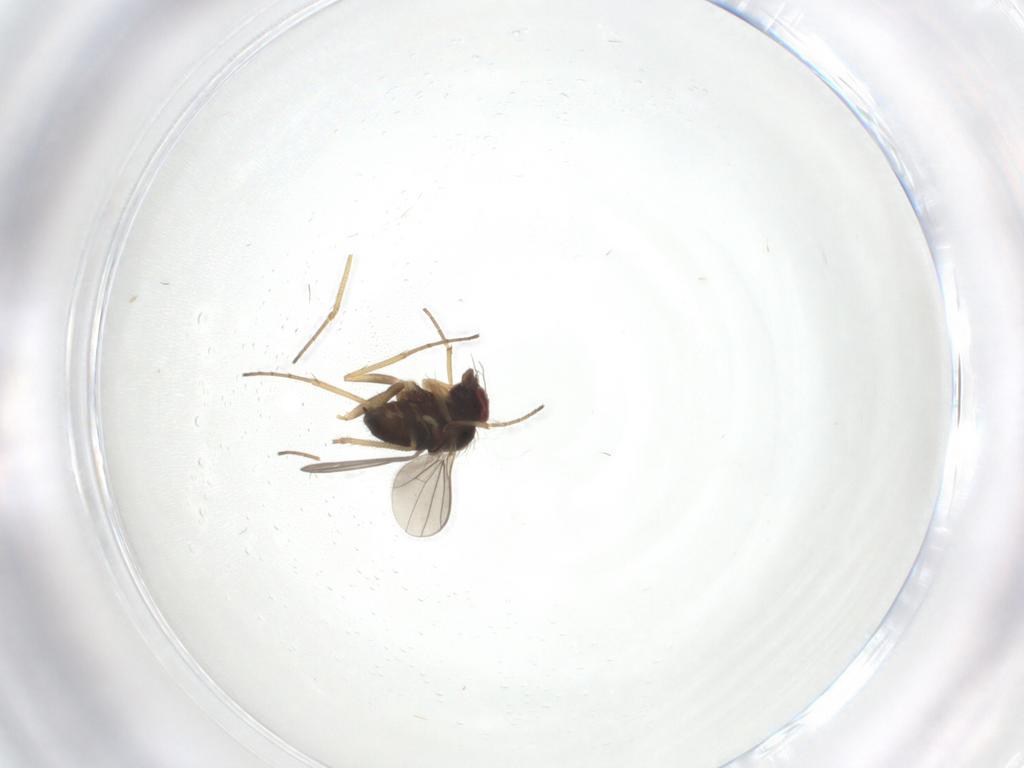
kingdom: Animalia
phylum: Arthropoda
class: Insecta
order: Diptera
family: Dolichopodidae
